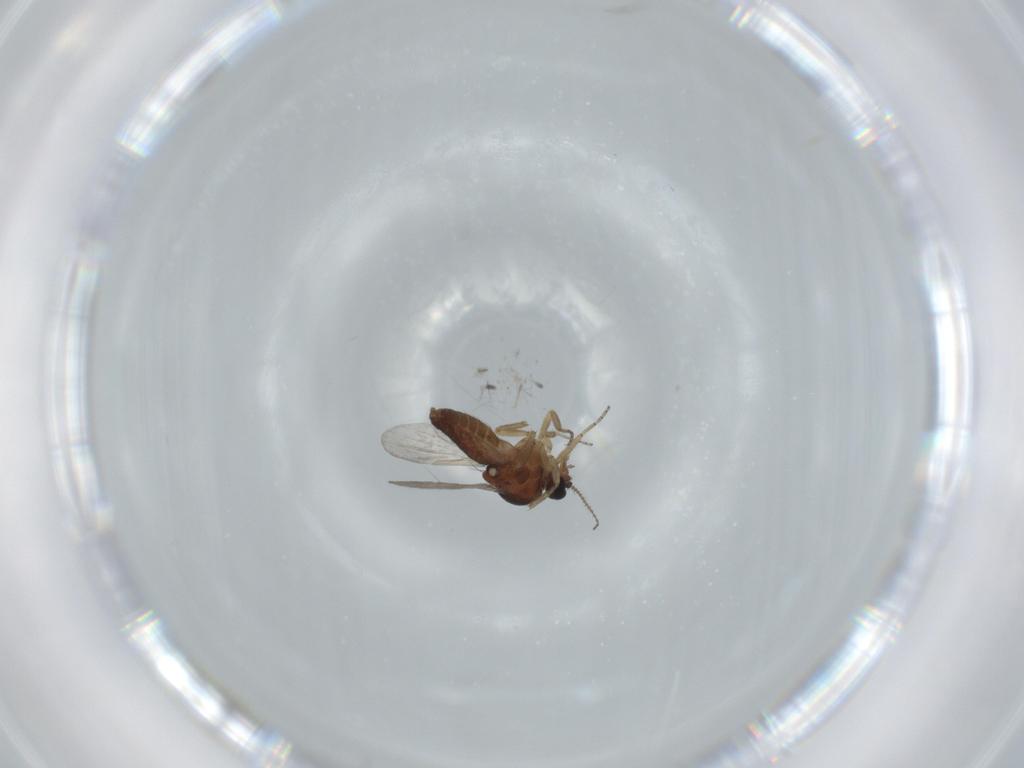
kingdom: Animalia
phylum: Arthropoda
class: Insecta
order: Diptera
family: Ceratopogonidae
